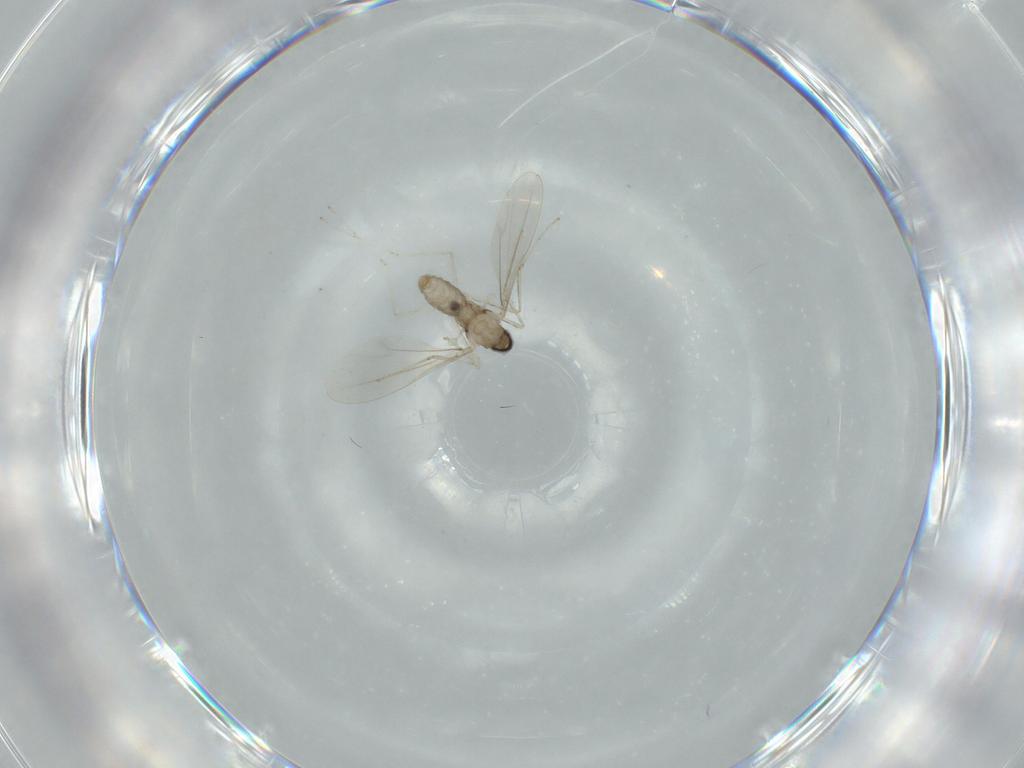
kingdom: Animalia
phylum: Arthropoda
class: Insecta
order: Diptera
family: Cecidomyiidae
